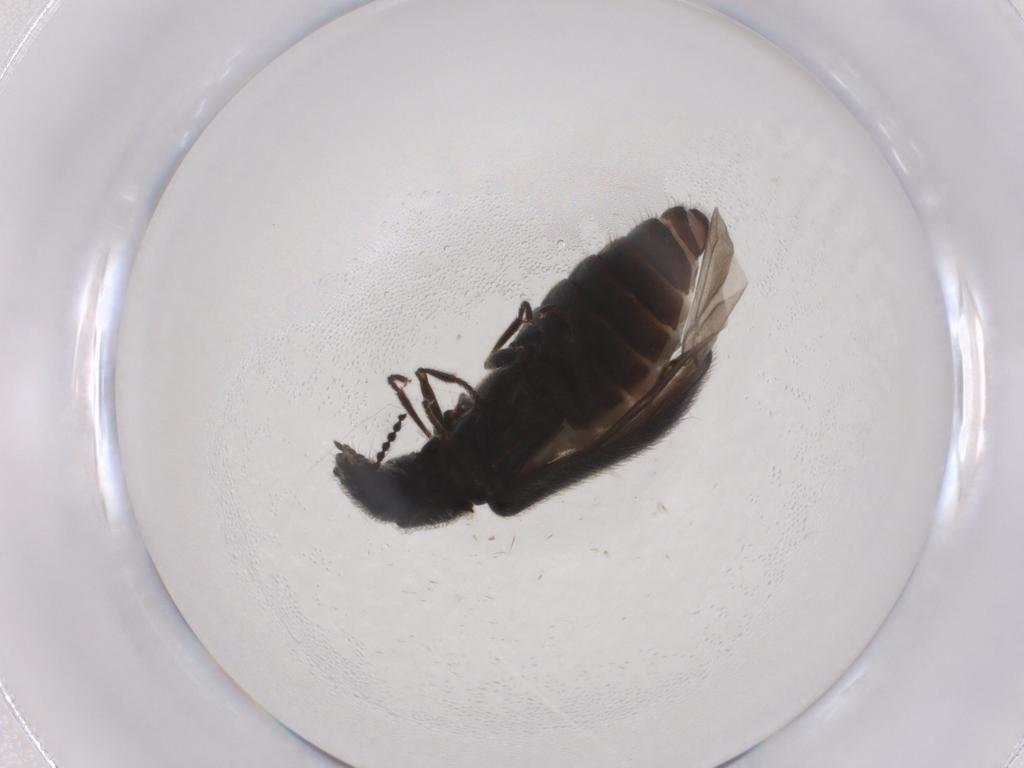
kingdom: Animalia
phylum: Arthropoda
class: Insecta
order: Coleoptera
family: Melyridae
